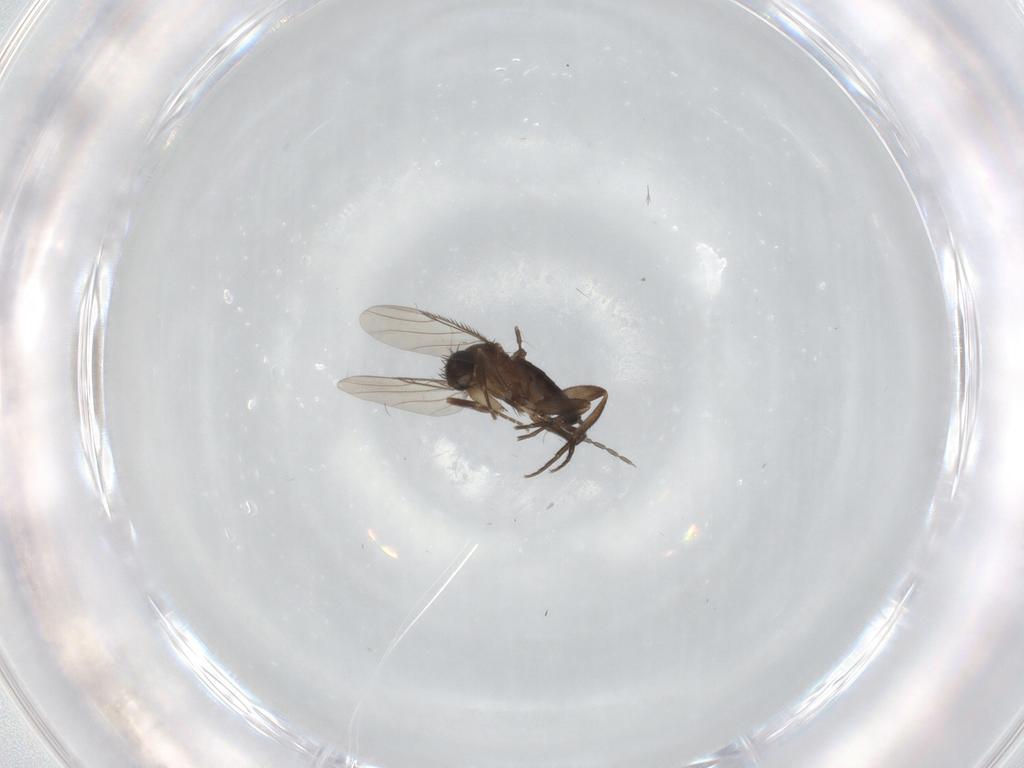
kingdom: Animalia
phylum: Arthropoda
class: Insecta
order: Diptera
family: Phoridae
